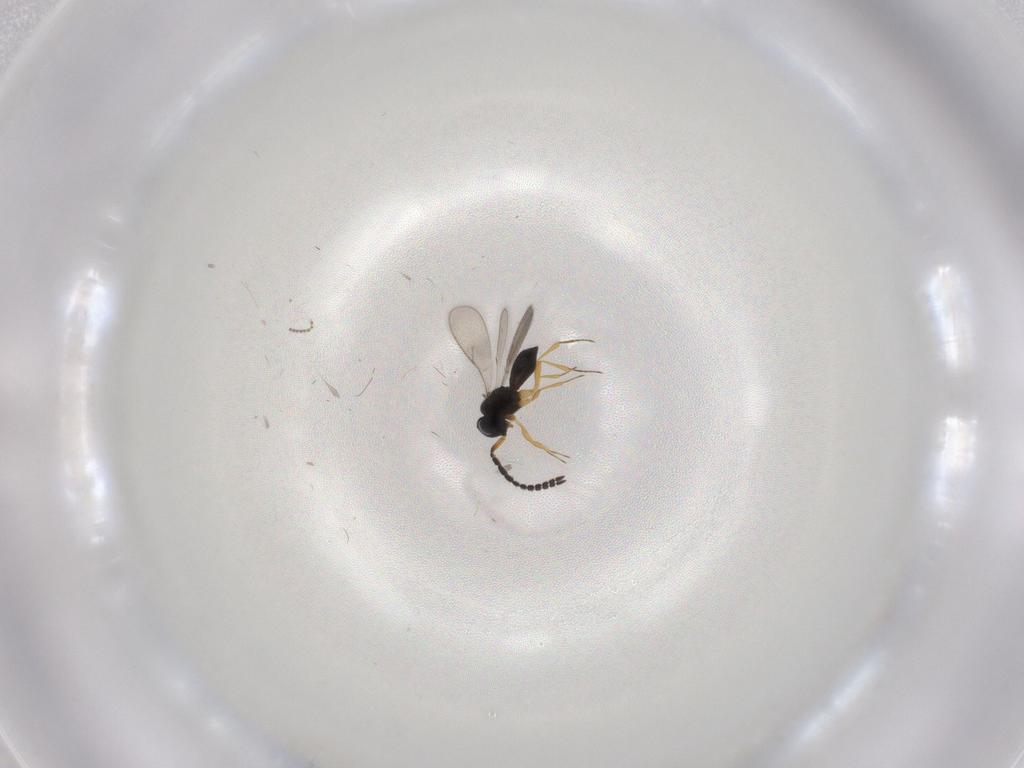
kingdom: Animalia
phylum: Arthropoda
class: Insecta
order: Hymenoptera
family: Scelionidae
